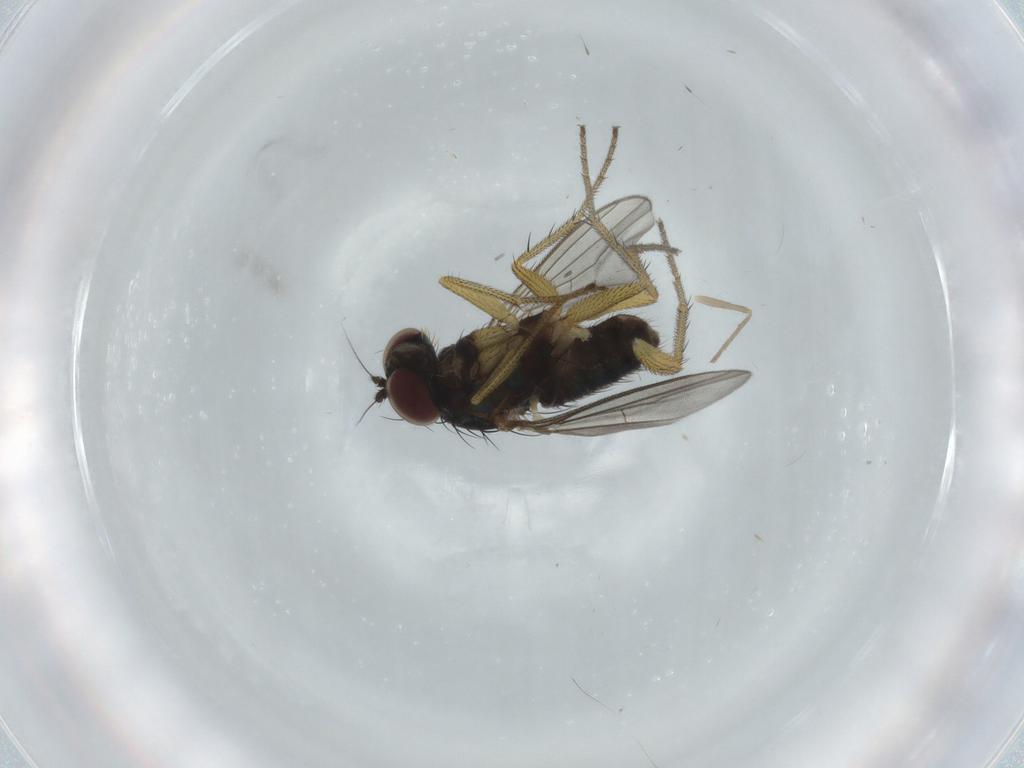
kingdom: Animalia
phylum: Arthropoda
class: Insecta
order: Diptera
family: Dolichopodidae
